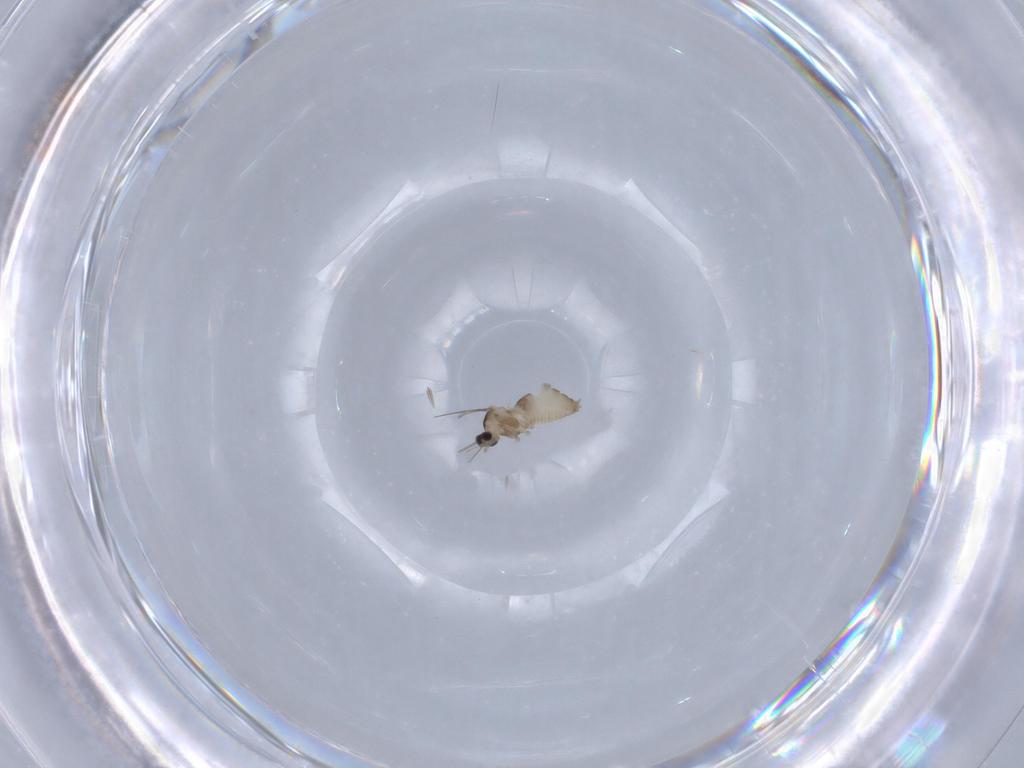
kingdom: Animalia
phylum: Arthropoda
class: Insecta
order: Diptera
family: Cecidomyiidae
